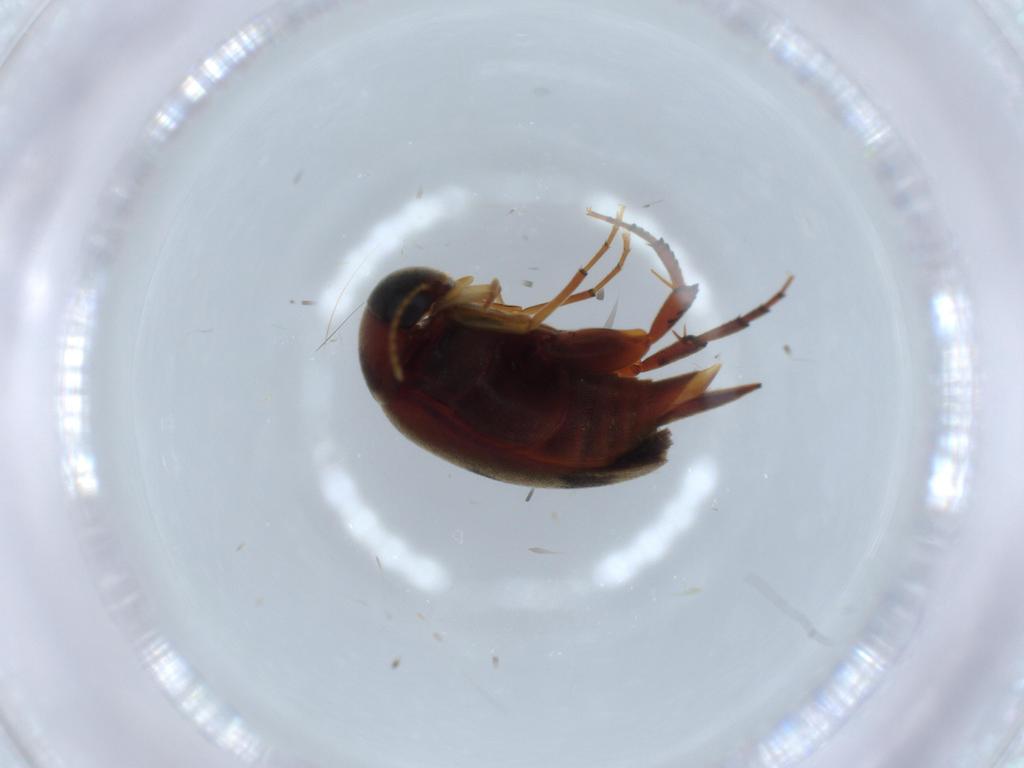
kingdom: Animalia
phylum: Arthropoda
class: Insecta
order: Coleoptera
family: Mordellidae
